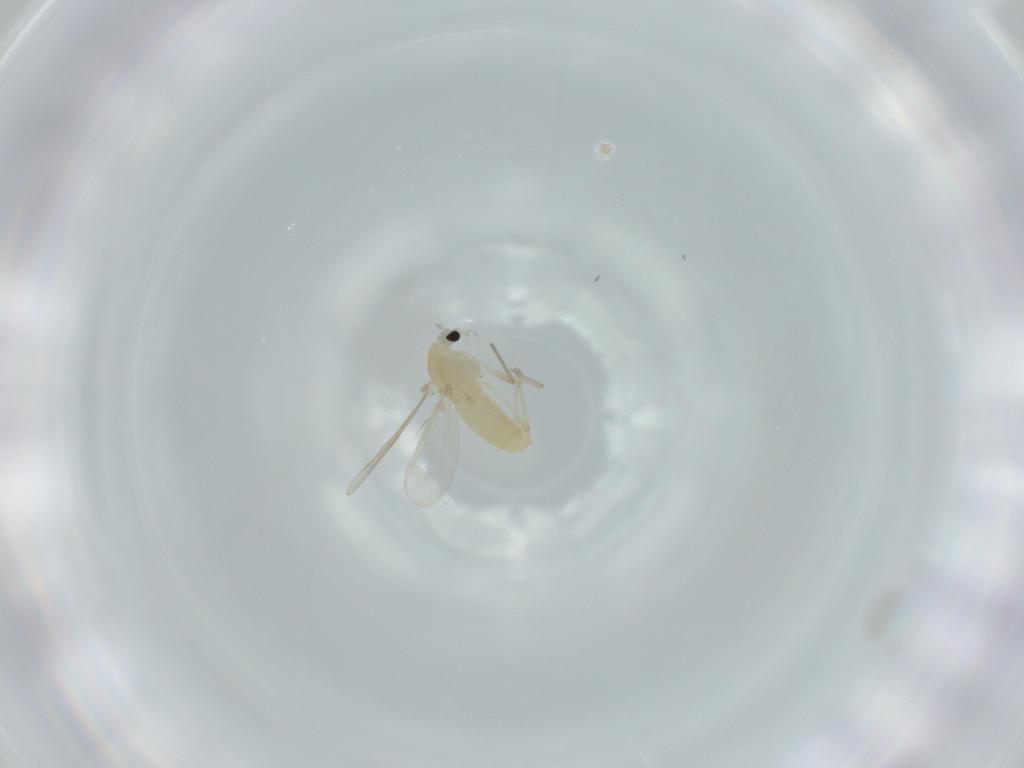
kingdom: Animalia
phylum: Arthropoda
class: Insecta
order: Diptera
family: Chironomidae
